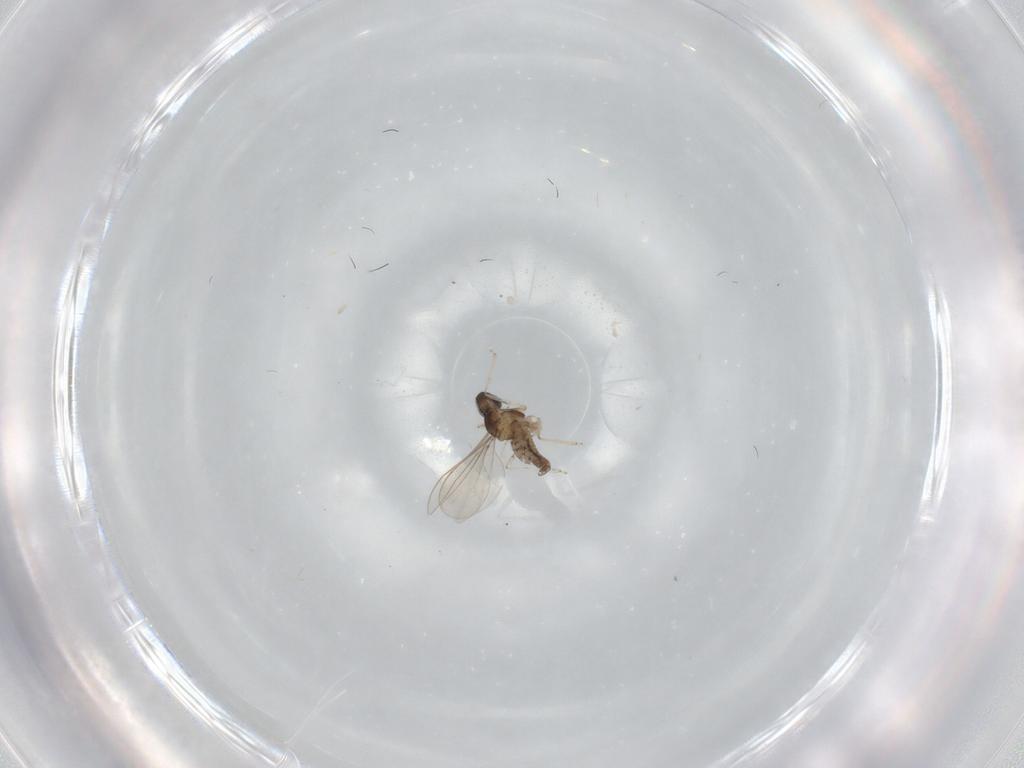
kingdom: Animalia
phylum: Arthropoda
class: Insecta
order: Diptera
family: Cecidomyiidae
